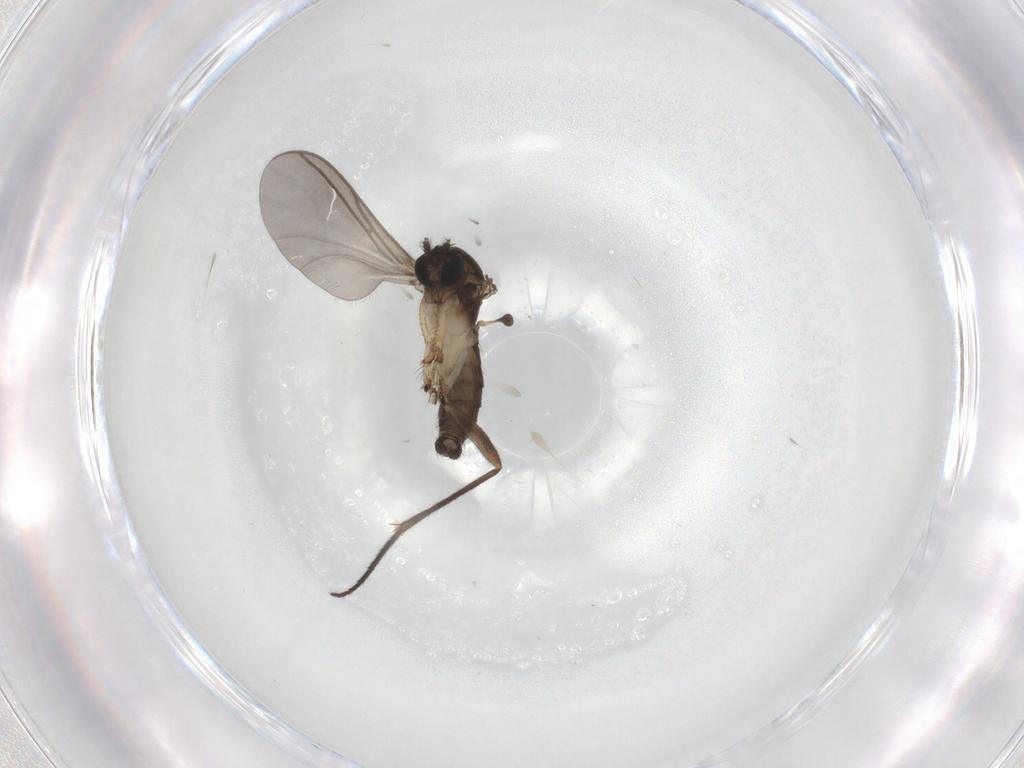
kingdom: Animalia
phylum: Arthropoda
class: Insecta
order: Diptera
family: Sciaridae
